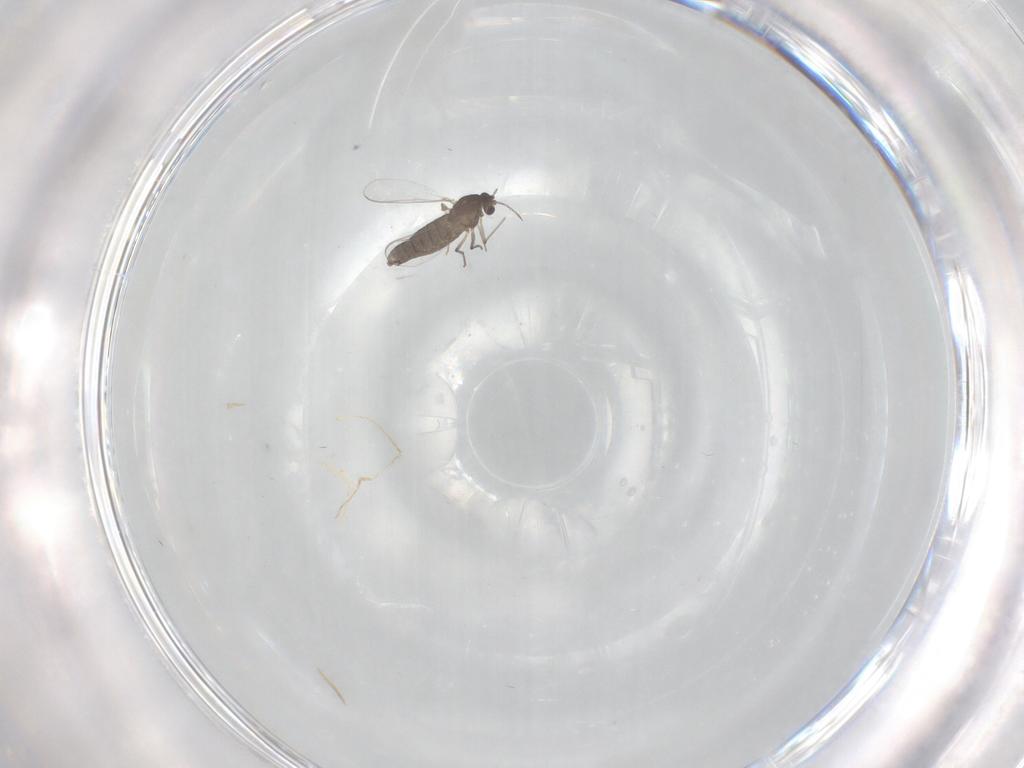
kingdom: Animalia
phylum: Arthropoda
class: Insecta
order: Diptera
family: Chironomidae
